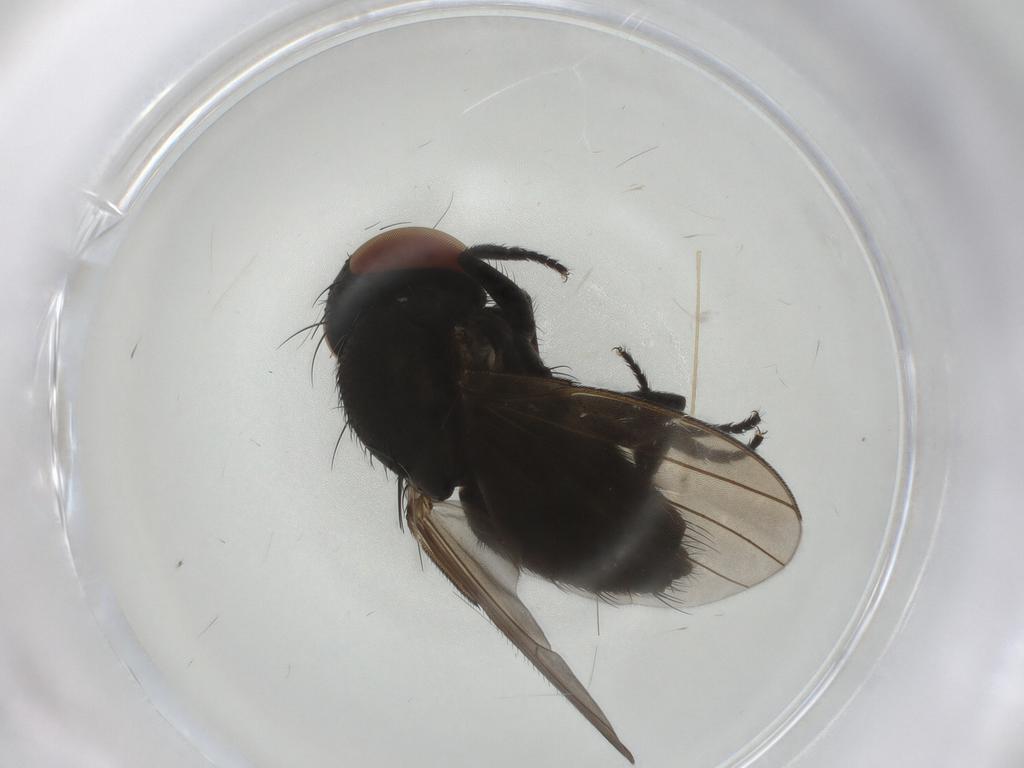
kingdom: Animalia
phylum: Arthropoda
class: Insecta
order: Diptera
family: Milichiidae
